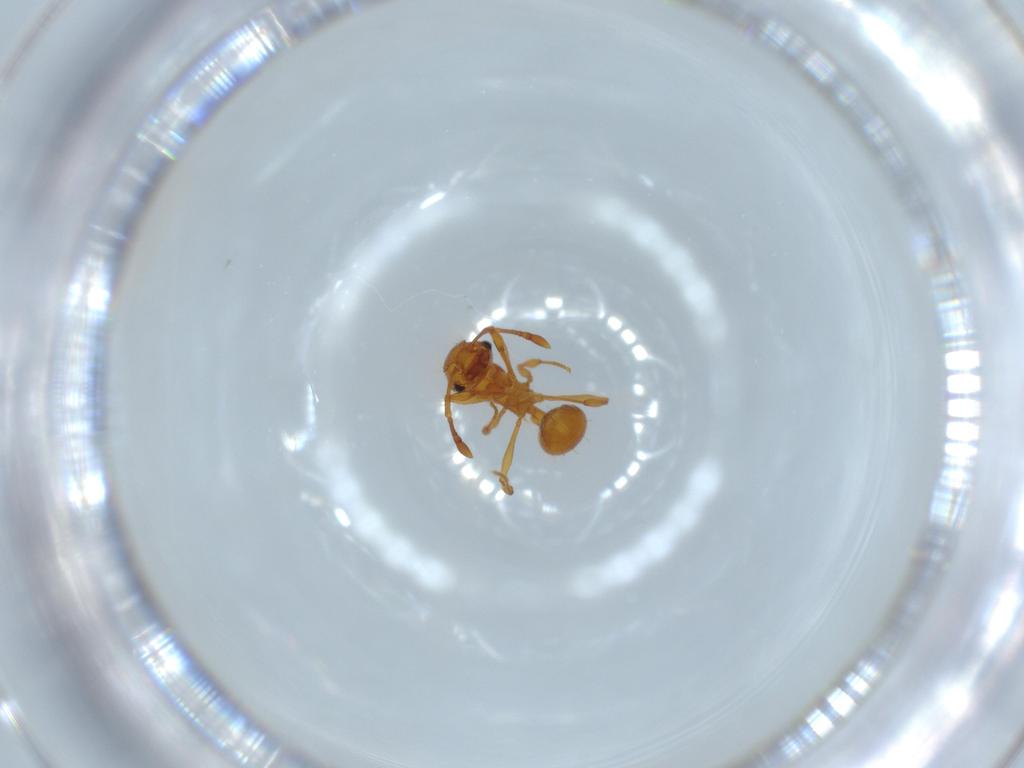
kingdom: Animalia
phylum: Arthropoda
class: Insecta
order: Hymenoptera
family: Formicidae
